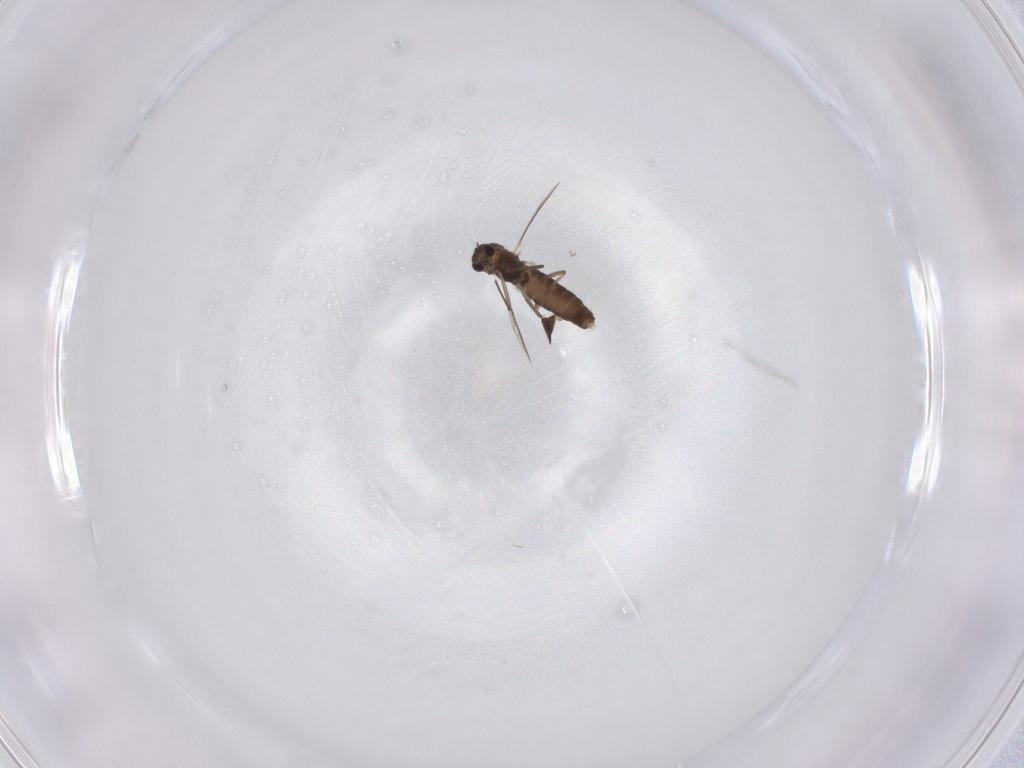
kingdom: Animalia
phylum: Arthropoda
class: Insecta
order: Diptera
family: Chironomidae
